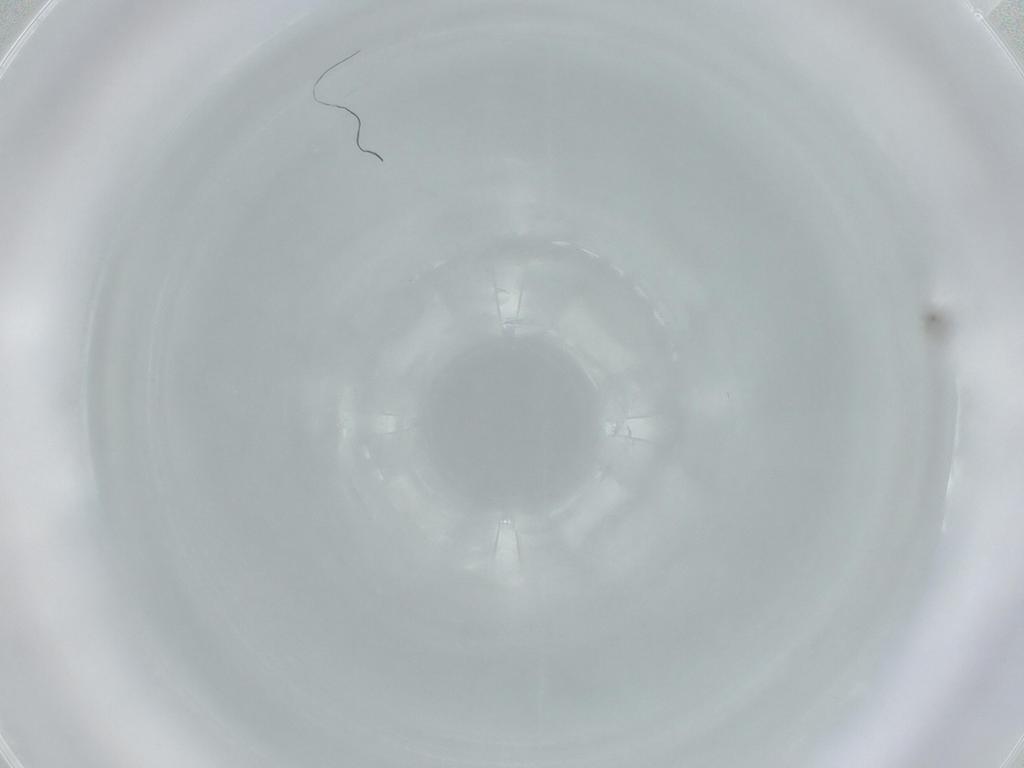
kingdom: Animalia
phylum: Arthropoda
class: Insecta
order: Diptera
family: Cecidomyiidae
